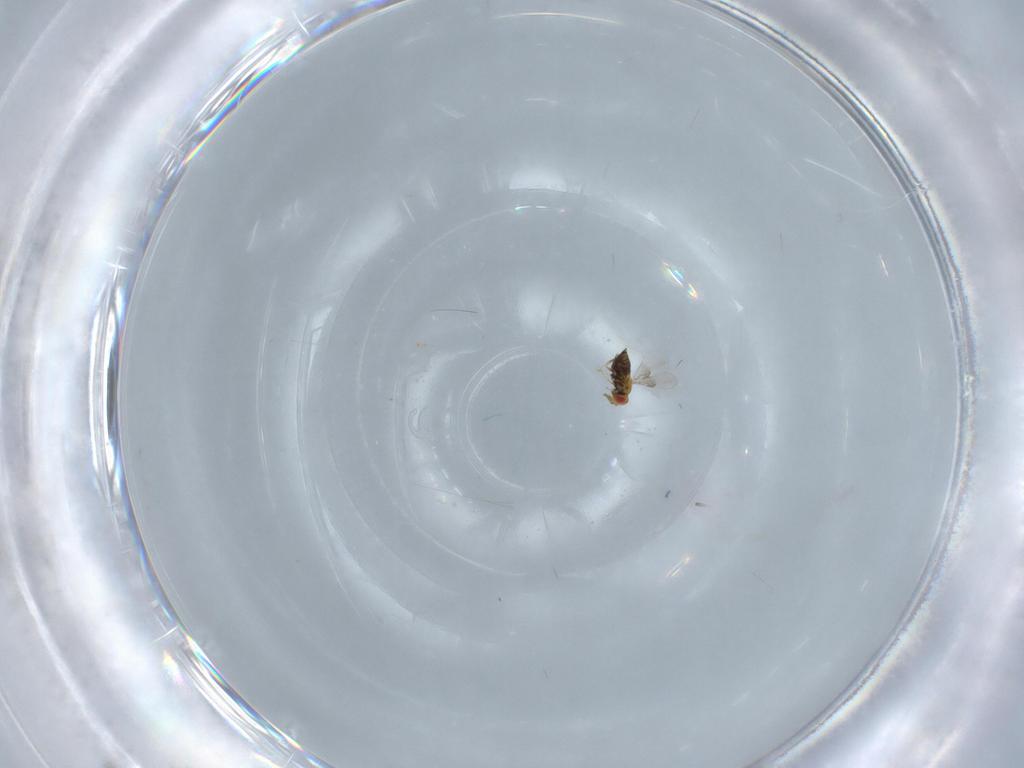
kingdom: Animalia
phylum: Arthropoda
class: Insecta
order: Hymenoptera
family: Trichogrammatidae
